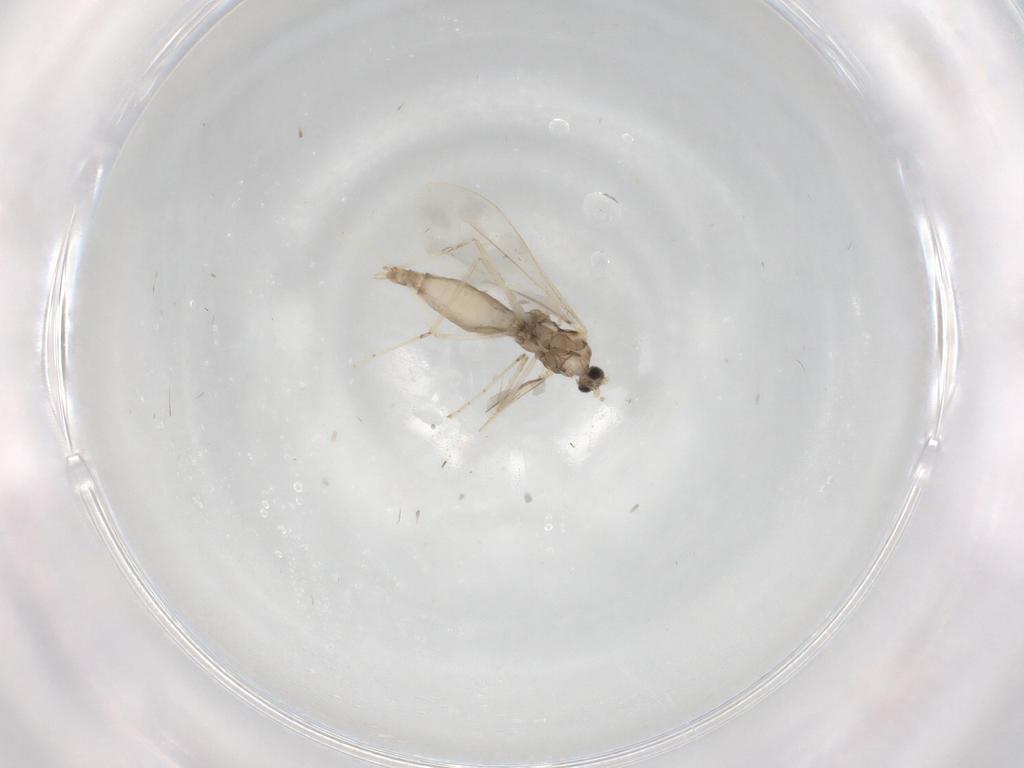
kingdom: Animalia
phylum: Arthropoda
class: Insecta
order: Diptera
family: Cecidomyiidae
